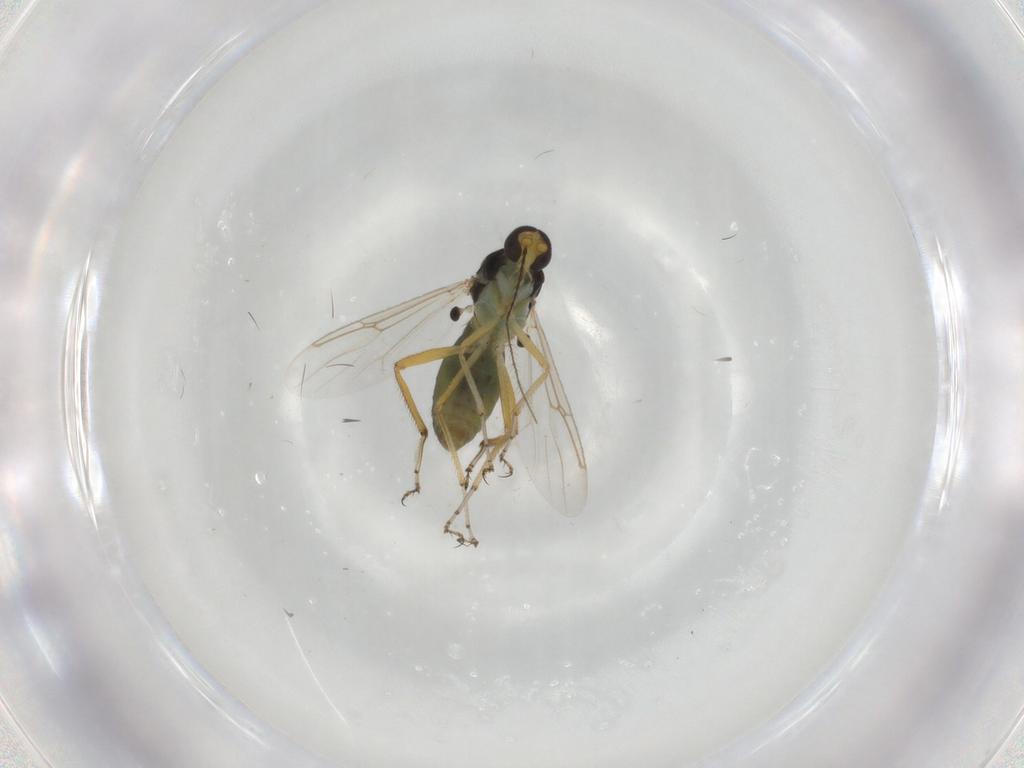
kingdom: Animalia
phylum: Arthropoda
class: Insecta
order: Diptera
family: Ceratopogonidae
